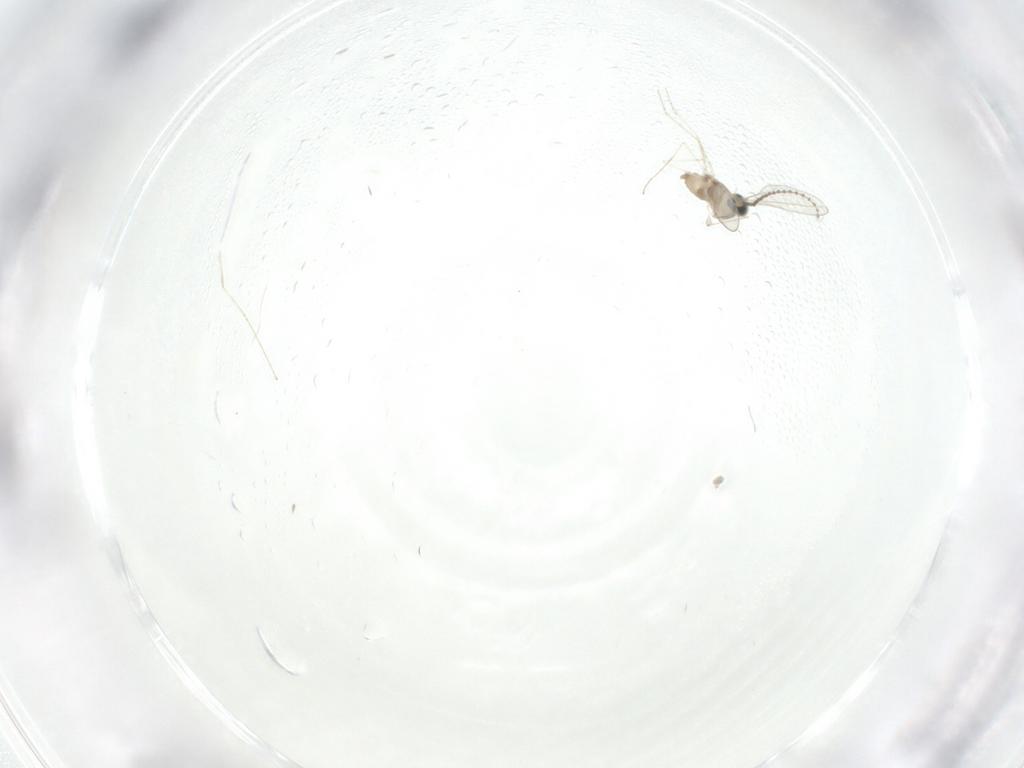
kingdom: Animalia
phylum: Arthropoda
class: Insecta
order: Diptera
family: Cecidomyiidae
